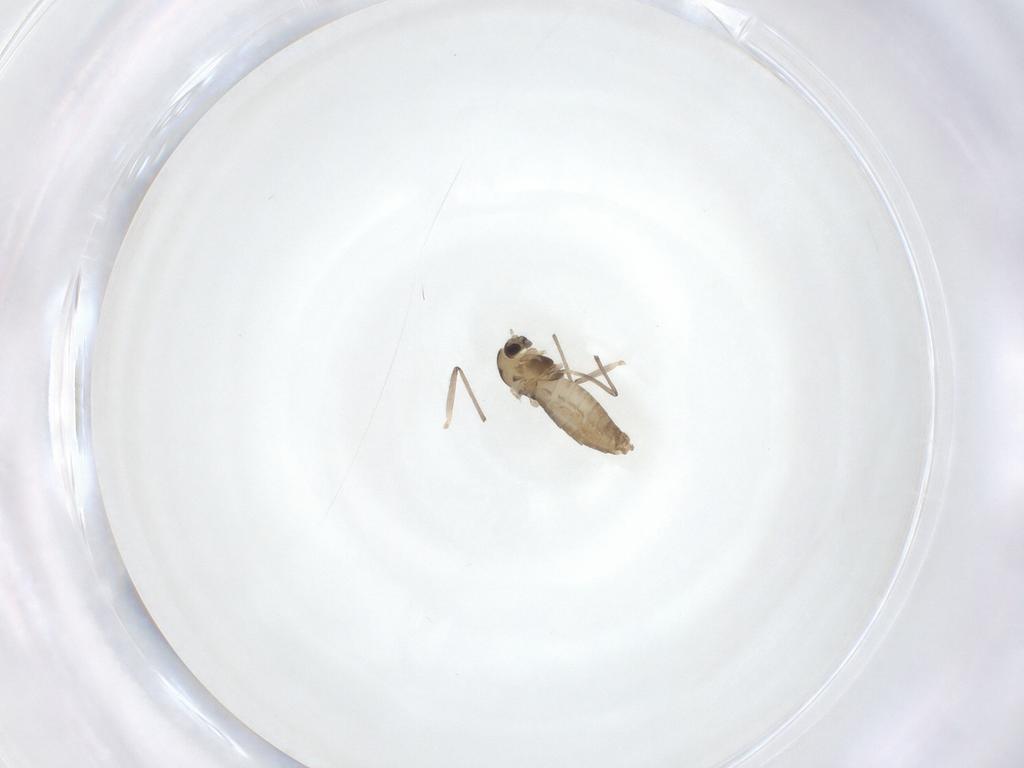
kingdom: Animalia
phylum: Arthropoda
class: Insecta
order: Diptera
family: Chironomidae
